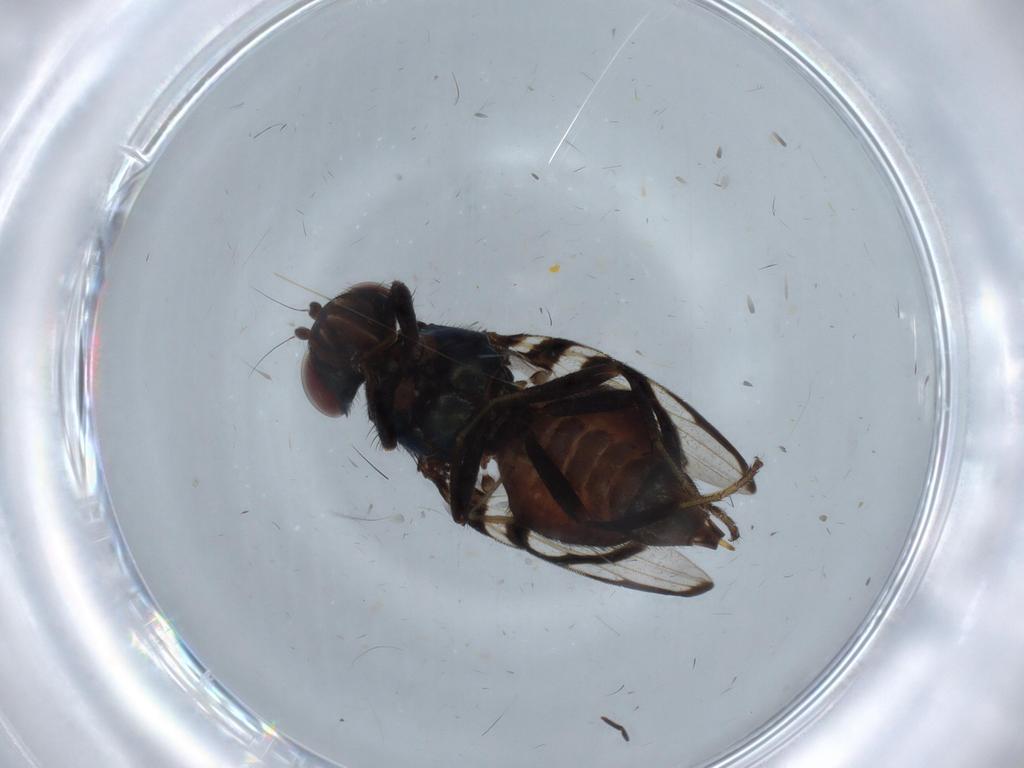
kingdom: Animalia
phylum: Arthropoda
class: Insecta
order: Diptera
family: Ulidiidae
